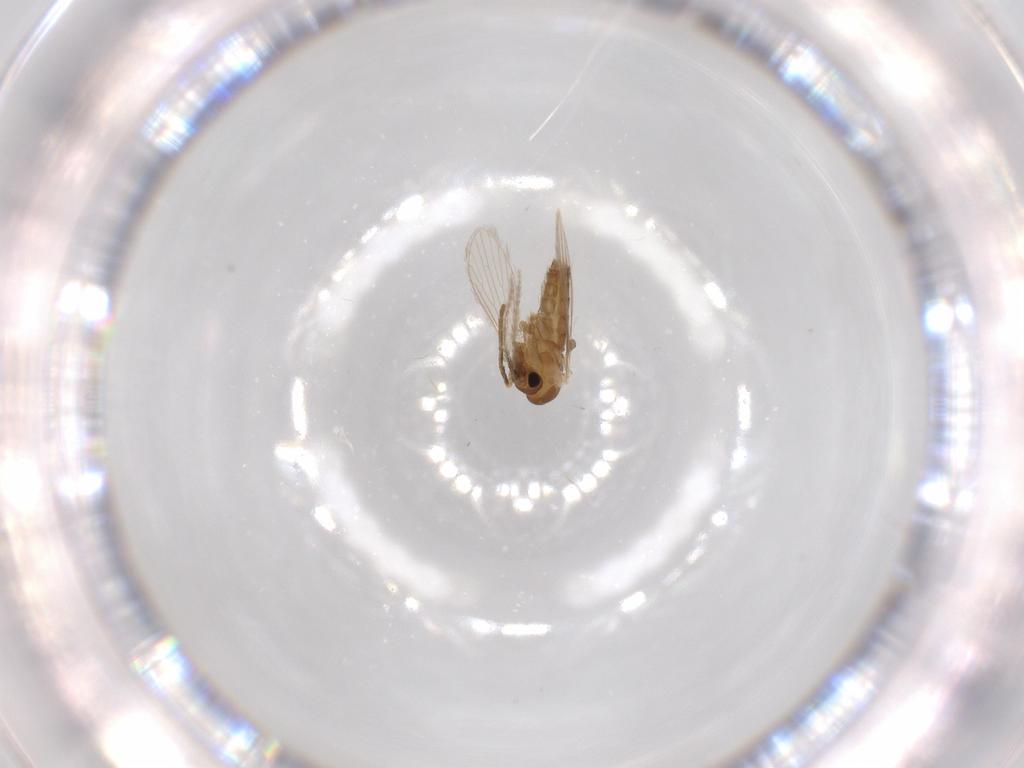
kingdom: Animalia
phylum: Arthropoda
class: Insecta
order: Diptera
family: Psychodidae
